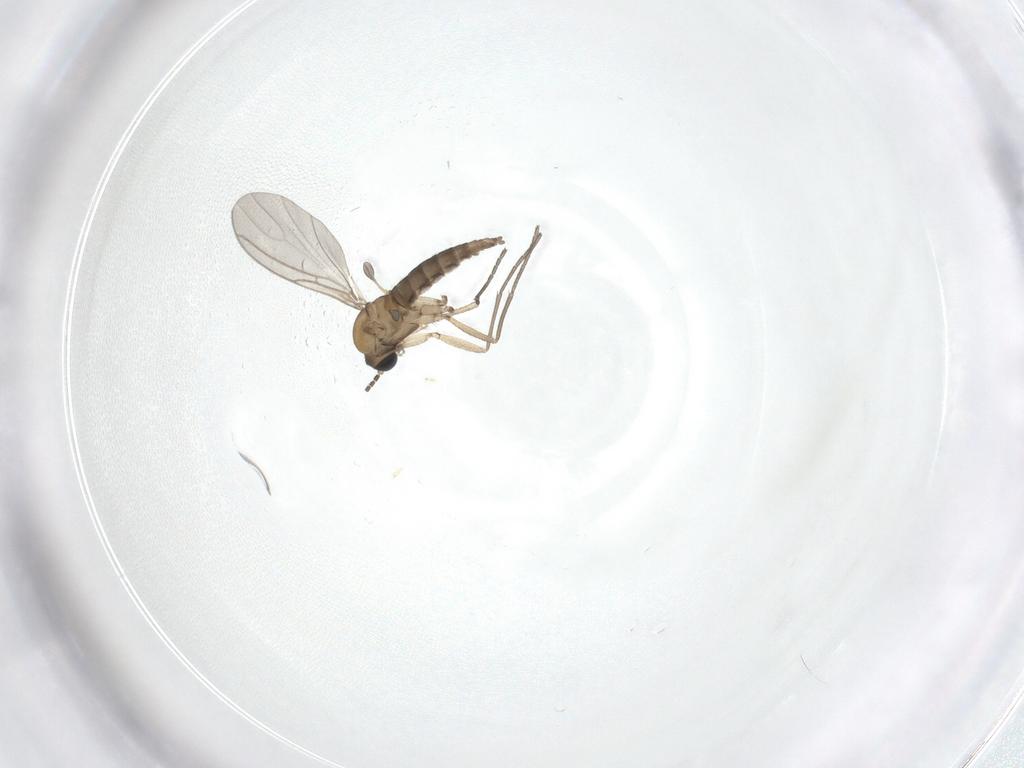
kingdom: Animalia
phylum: Arthropoda
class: Insecta
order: Diptera
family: Sciaridae
